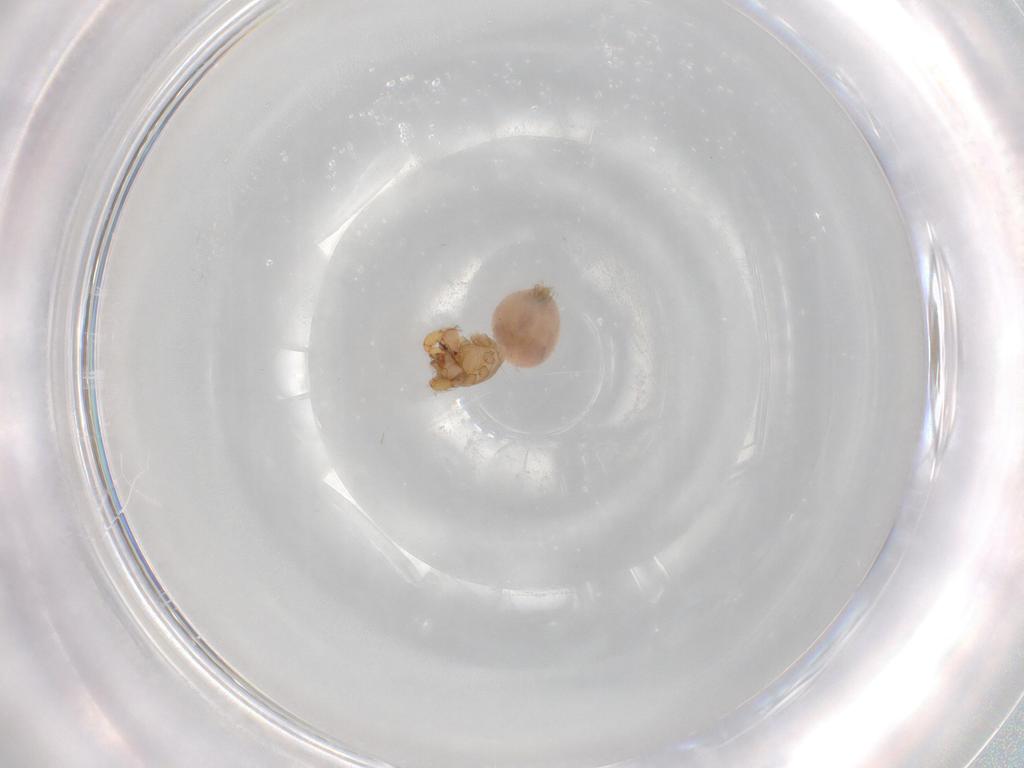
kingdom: Animalia
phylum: Arthropoda
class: Arachnida
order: Araneae
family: Oonopidae
